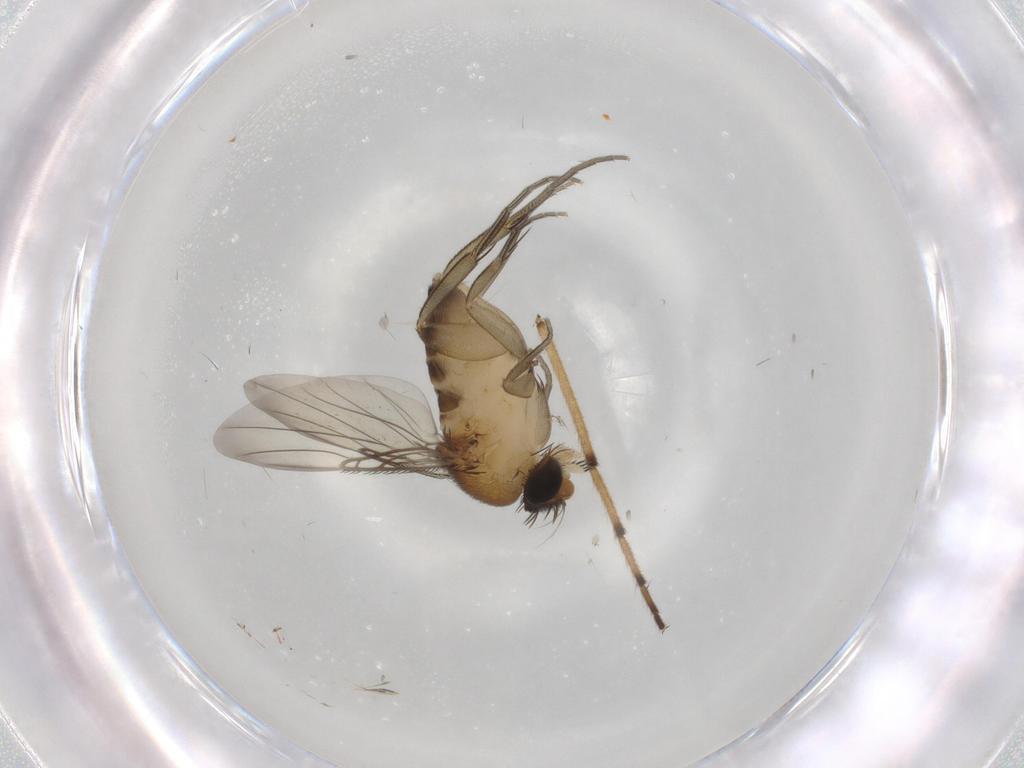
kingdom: Animalia
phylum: Arthropoda
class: Insecta
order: Diptera
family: Phoridae
